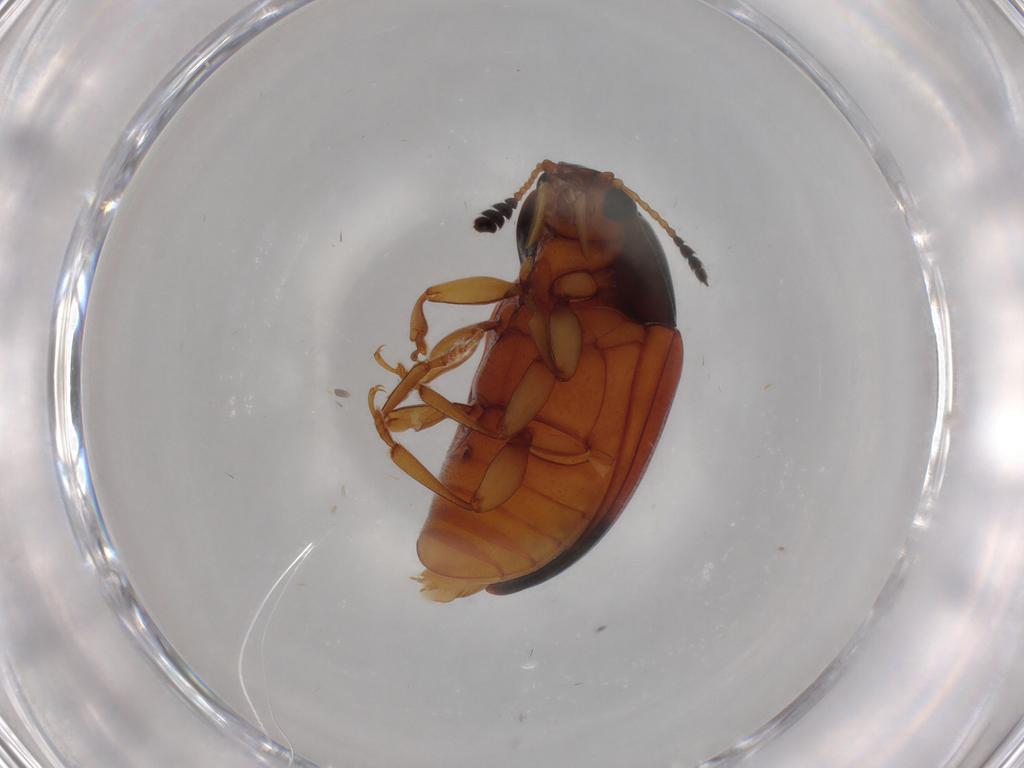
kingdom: Animalia
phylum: Arthropoda
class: Insecta
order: Coleoptera
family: Erotylidae
